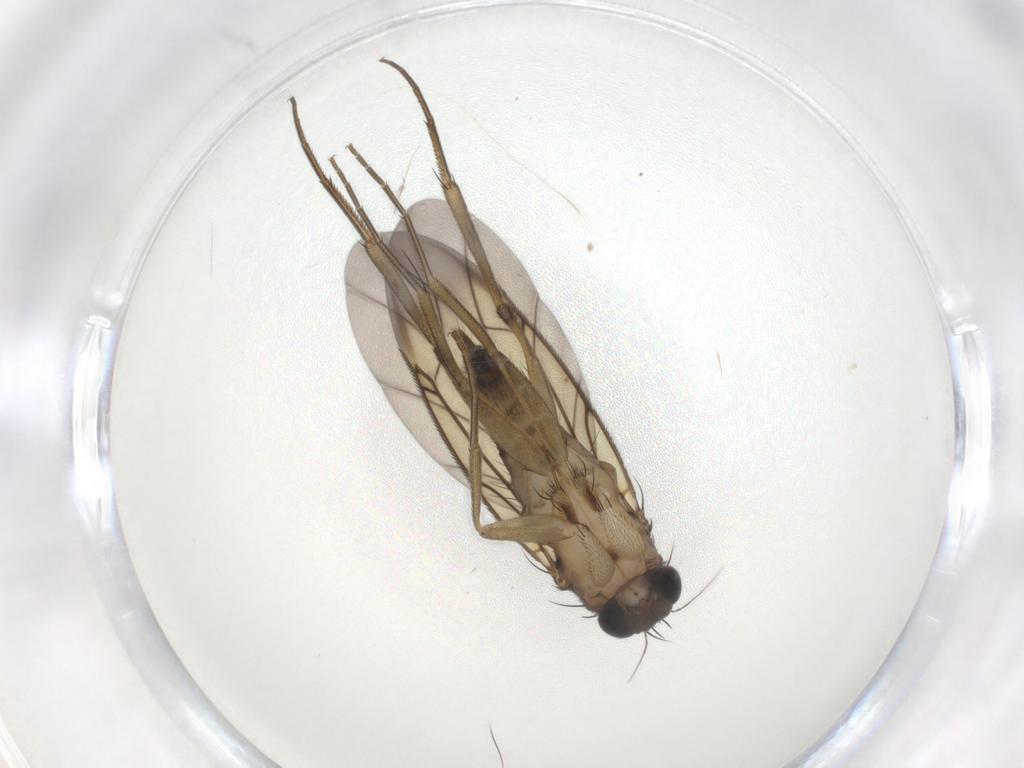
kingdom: Animalia
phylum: Arthropoda
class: Insecta
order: Diptera
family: Phoridae
